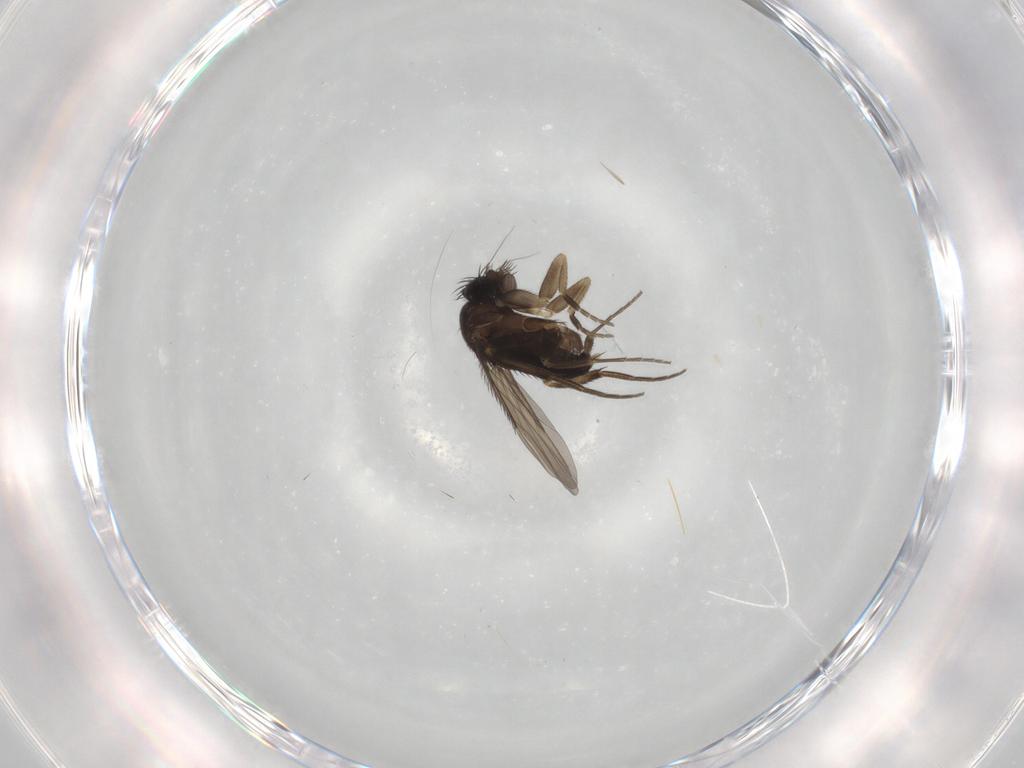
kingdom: Animalia
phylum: Arthropoda
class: Insecta
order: Diptera
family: Phoridae
